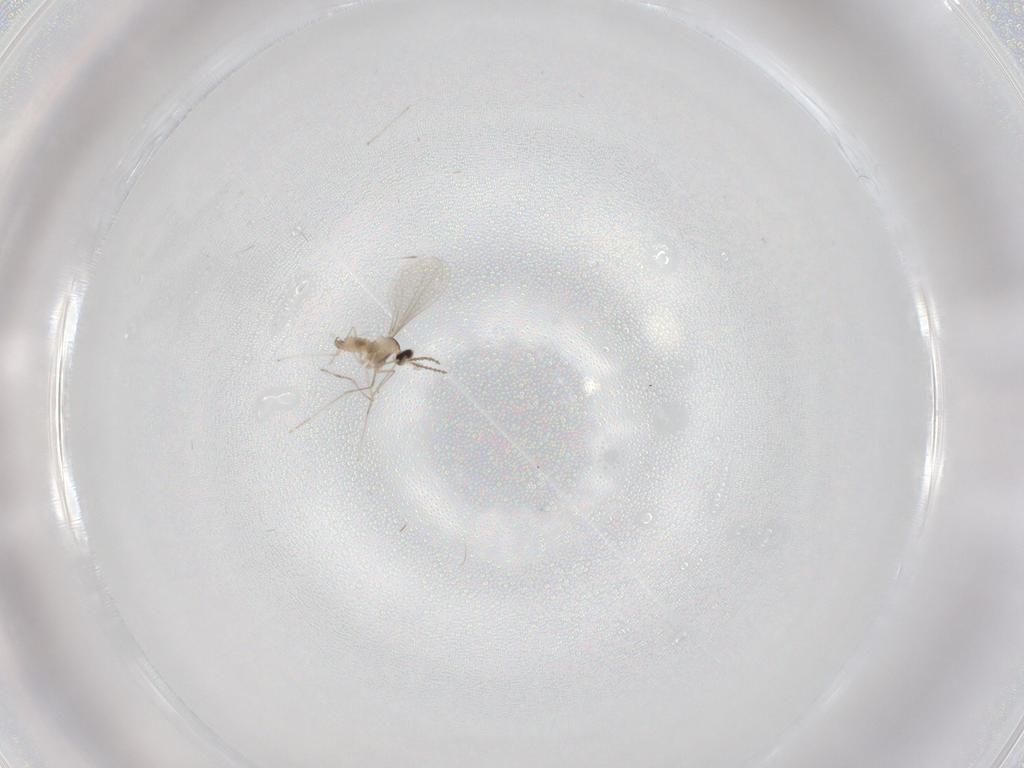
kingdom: Animalia
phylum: Arthropoda
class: Insecta
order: Diptera
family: Cecidomyiidae
